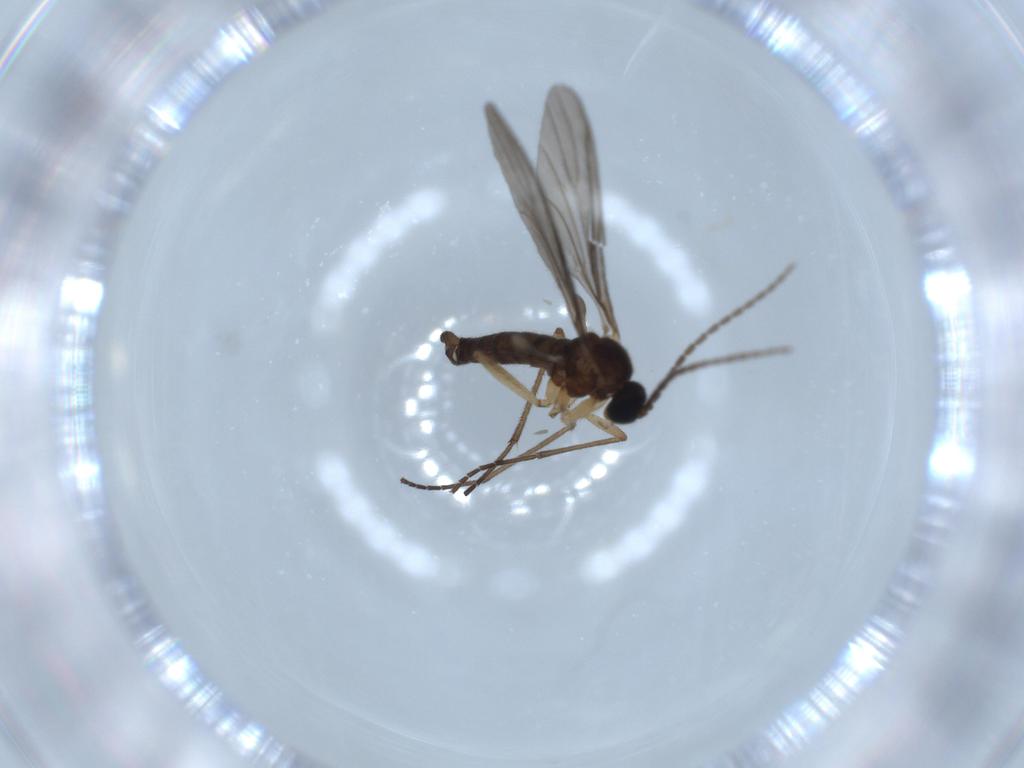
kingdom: Animalia
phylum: Arthropoda
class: Insecta
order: Diptera
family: Sciaridae
